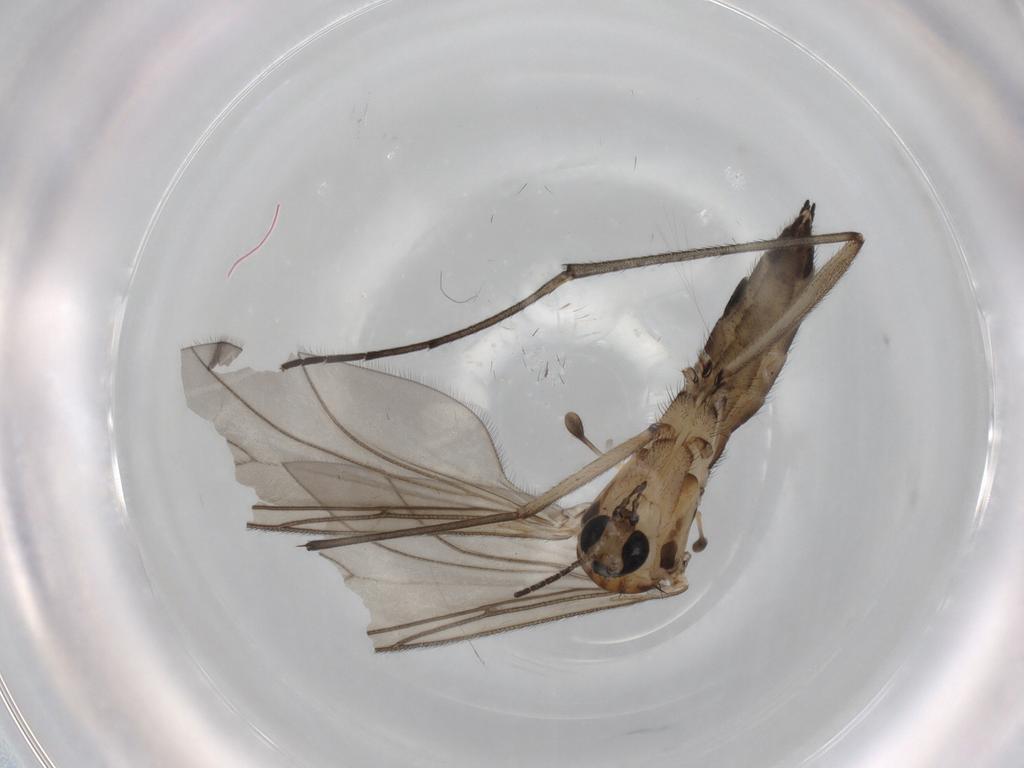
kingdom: Animalia
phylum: Arthropoda
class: Insecta
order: Diptera
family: Sciaridae
